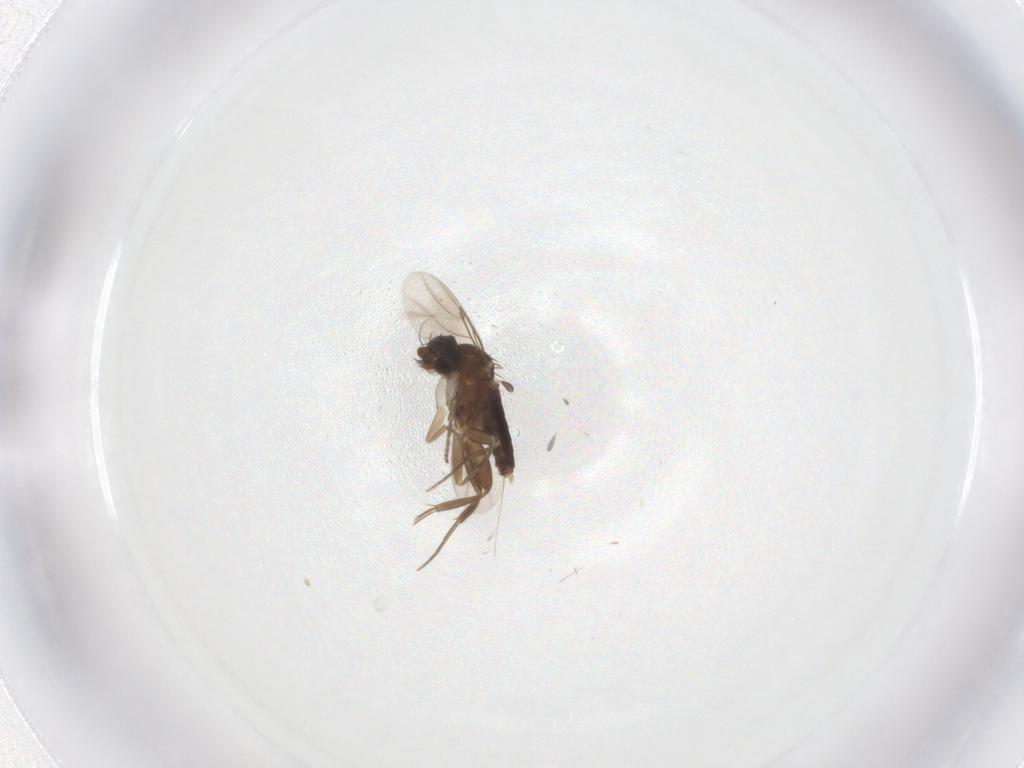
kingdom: Animalia
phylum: Arthropoda
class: Insecta
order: Diptera
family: Phoridae
